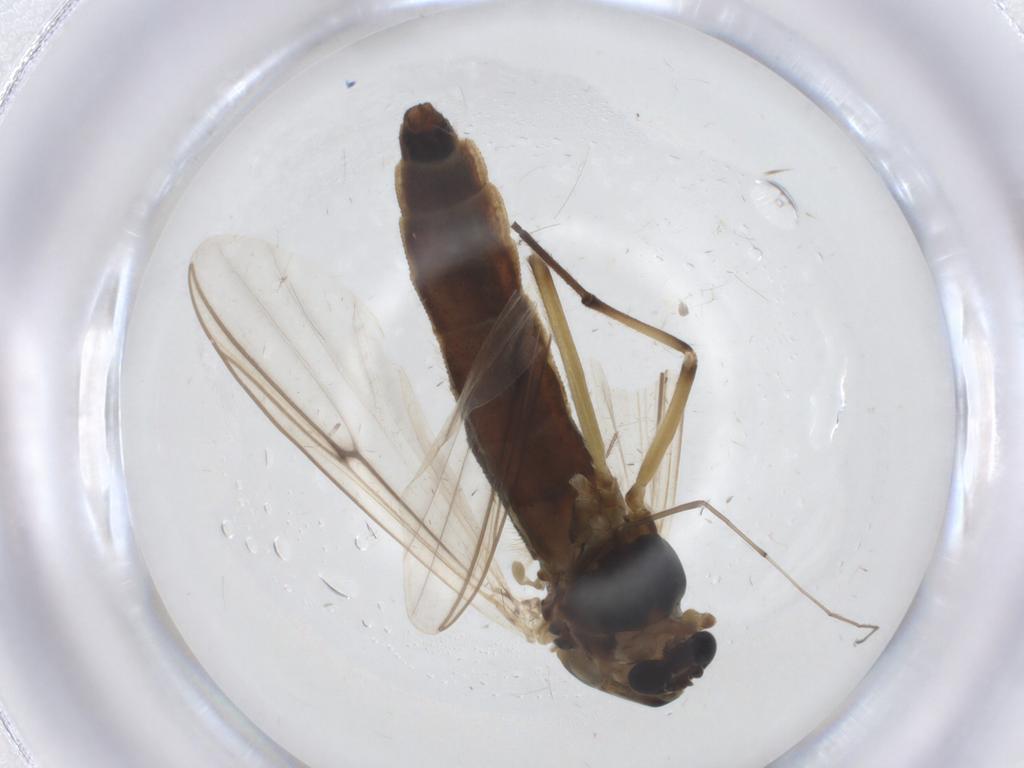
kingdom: Animalia
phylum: Arthropoda
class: Insecta
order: Diptera
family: Chironomidae
